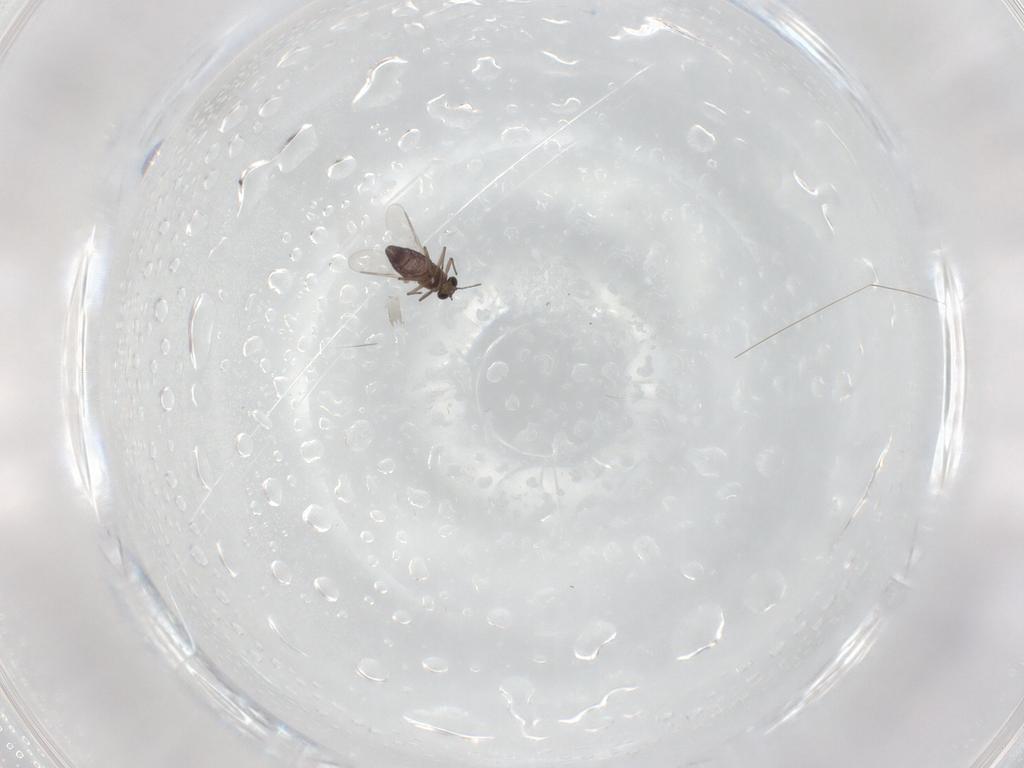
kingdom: Animalia
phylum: Arthropoda
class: Insecta
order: Diptera
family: Chironomidae
